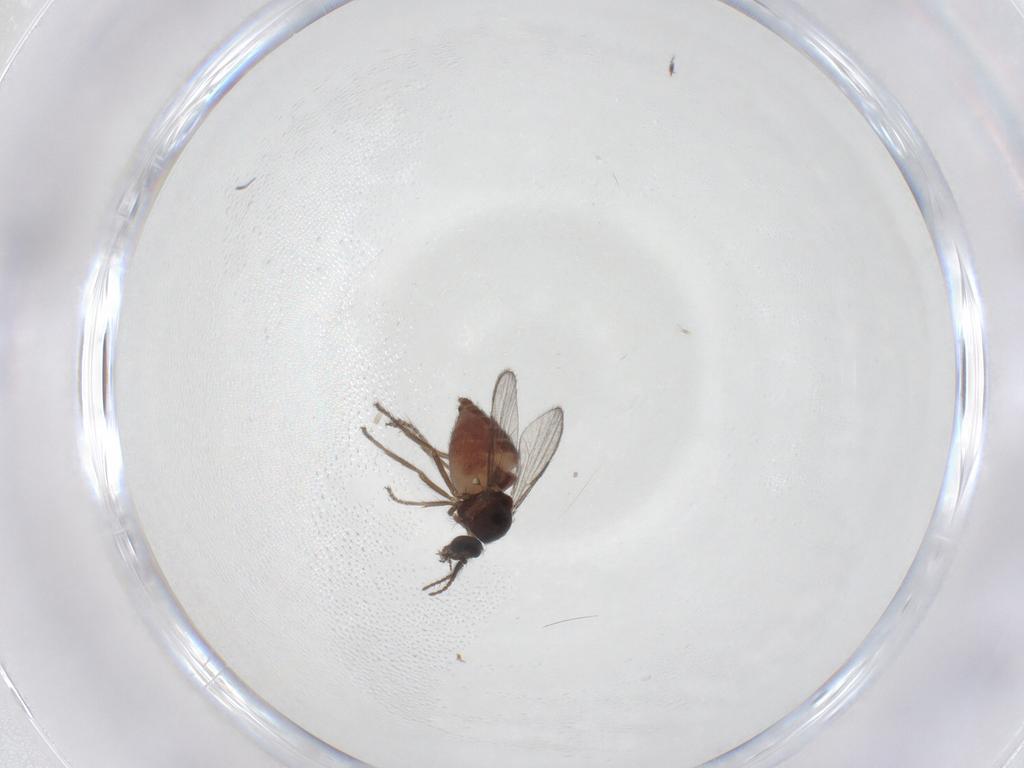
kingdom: Animalia
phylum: Arthropoda
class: Insecta
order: Diptera
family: Ceratopogonidae
